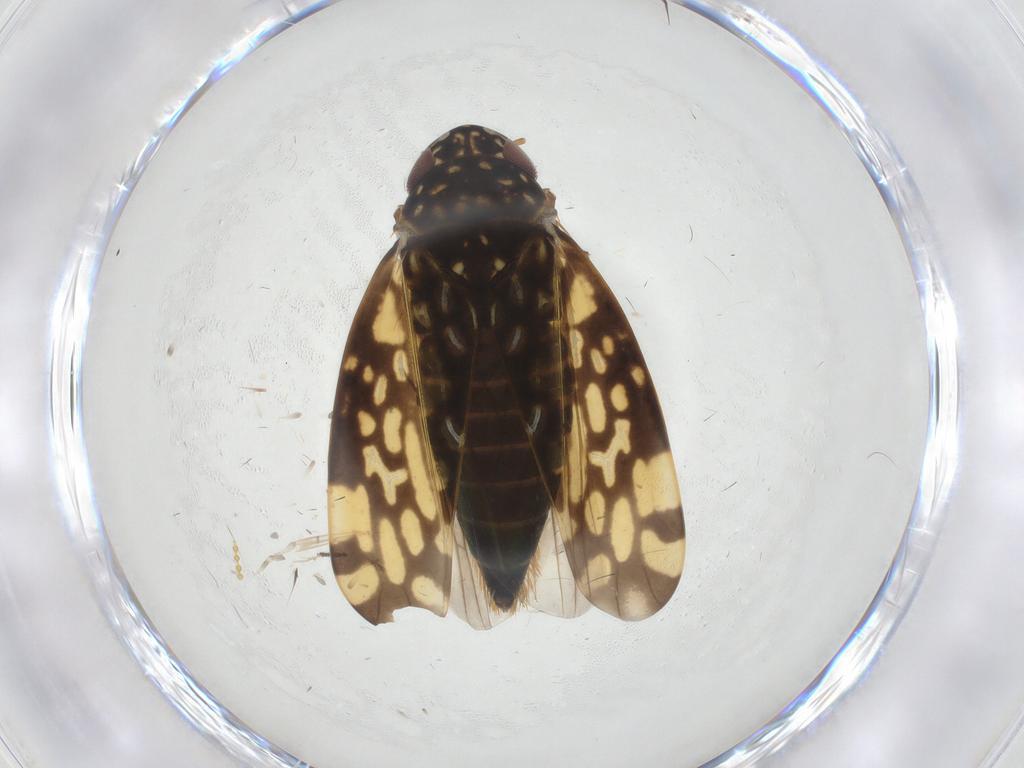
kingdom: Animalia
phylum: Arthropoda
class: Insecta
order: Hemiptera
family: Cicadellidae
